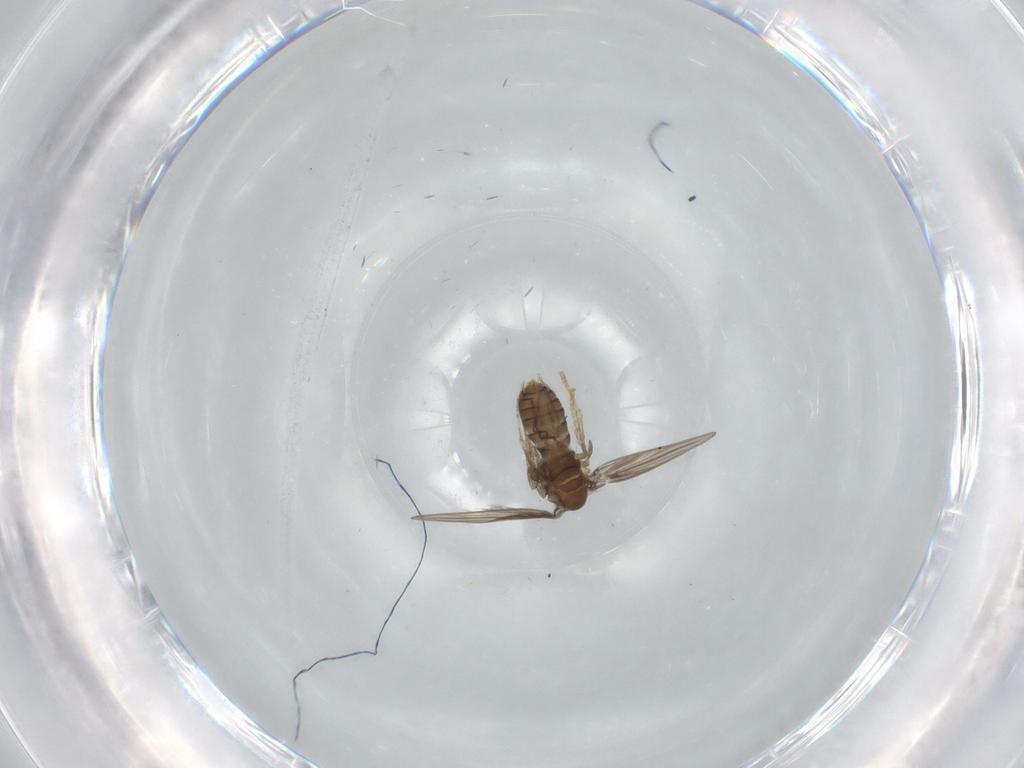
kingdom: Animalia
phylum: Arthropoda
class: Insecta
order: Diptera
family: Psychodidae
